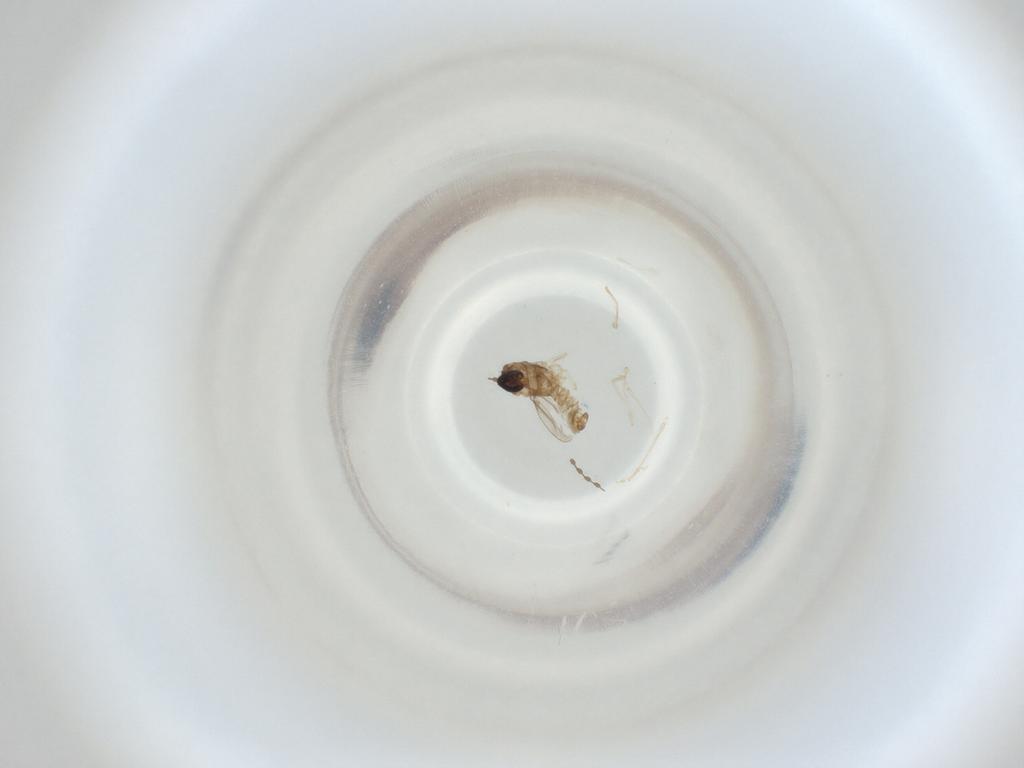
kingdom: Animalia
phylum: Arthropoda
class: Insecta
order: Diptera
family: Cecidomyiidae
